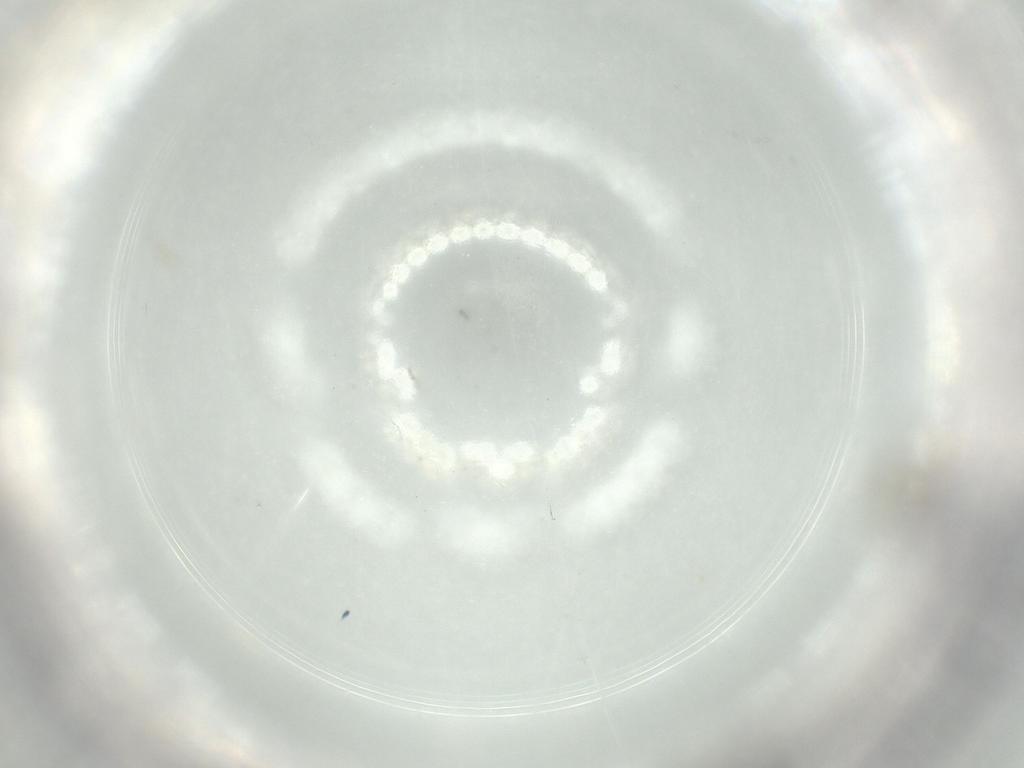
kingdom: Animalia
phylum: Arthropoda
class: Insecta
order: Diptera
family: Psychodidae
